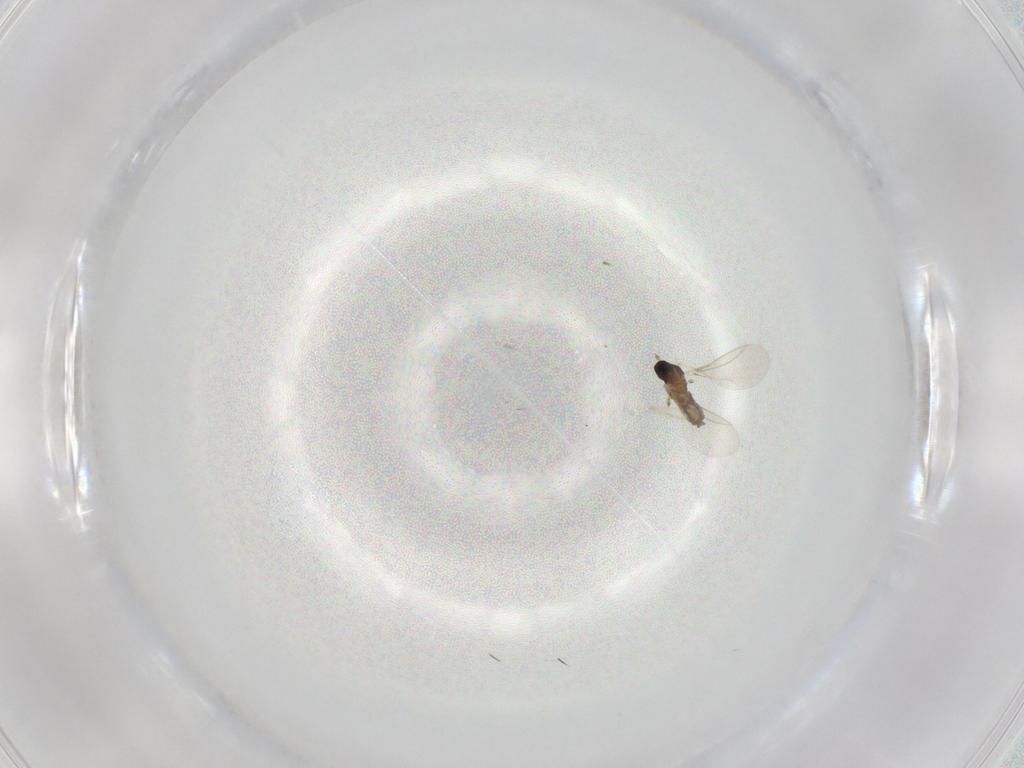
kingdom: Animalia
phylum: Arthropoda
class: Insecta
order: Diptera
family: Cecidomyiidae
